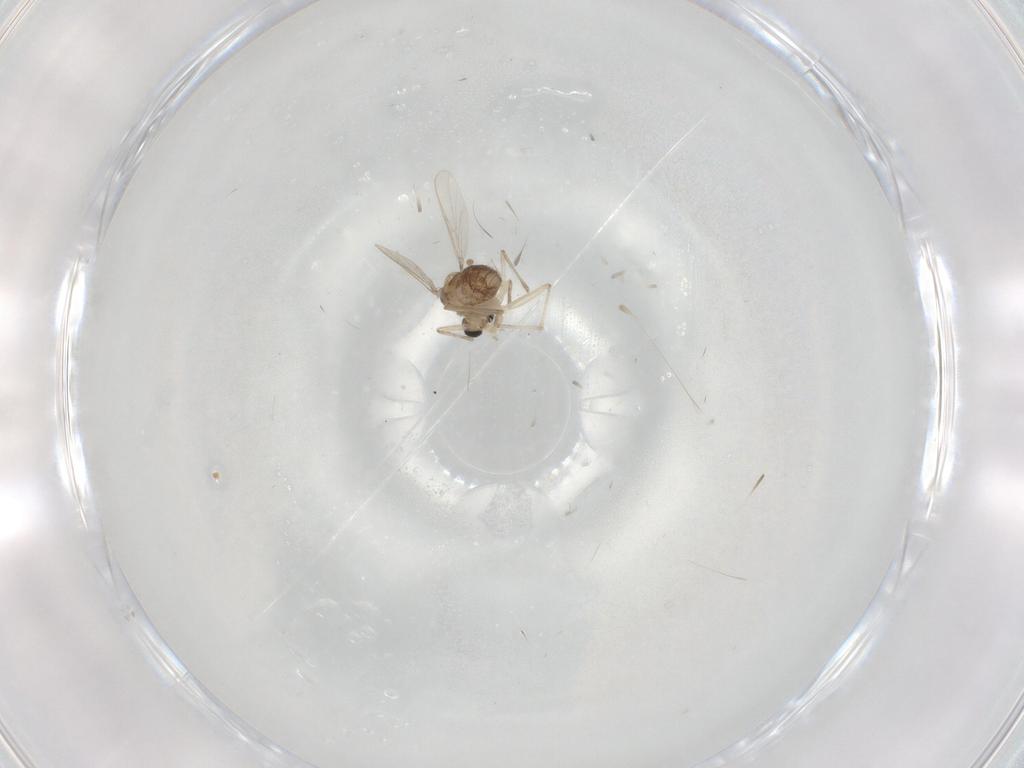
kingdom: Animalia
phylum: Arthropoda
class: Insecta
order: Diptera
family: Chironomidae
